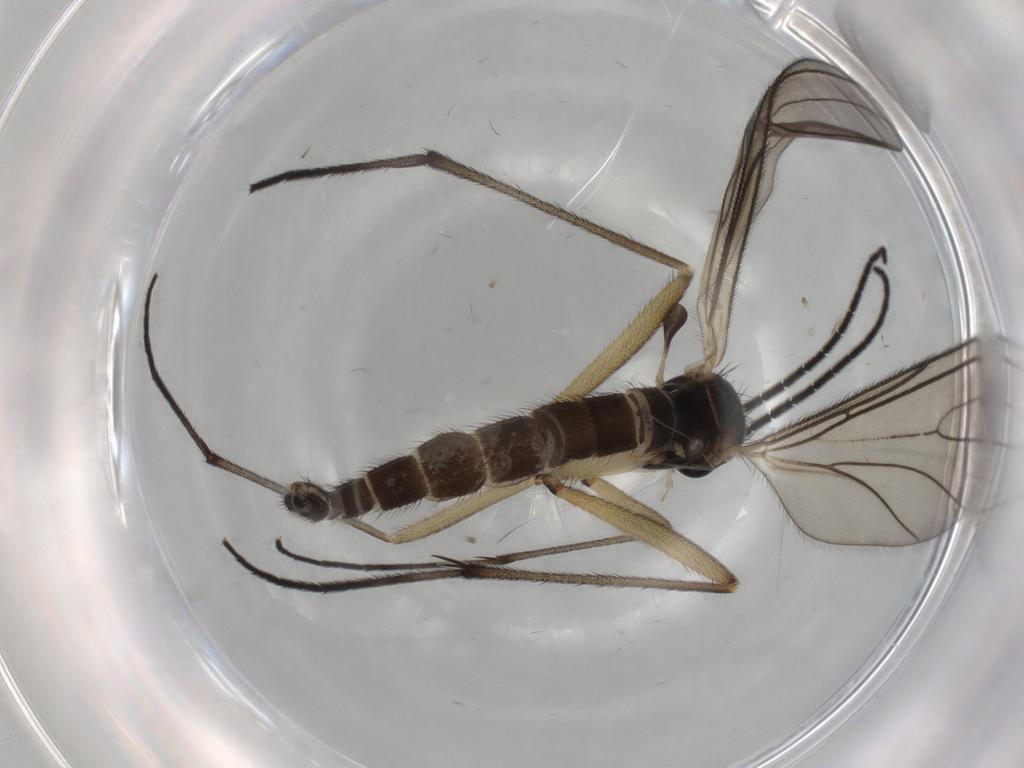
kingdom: Animalia
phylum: Arthropoda
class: Insecta
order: Diptera
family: Sciaridae
